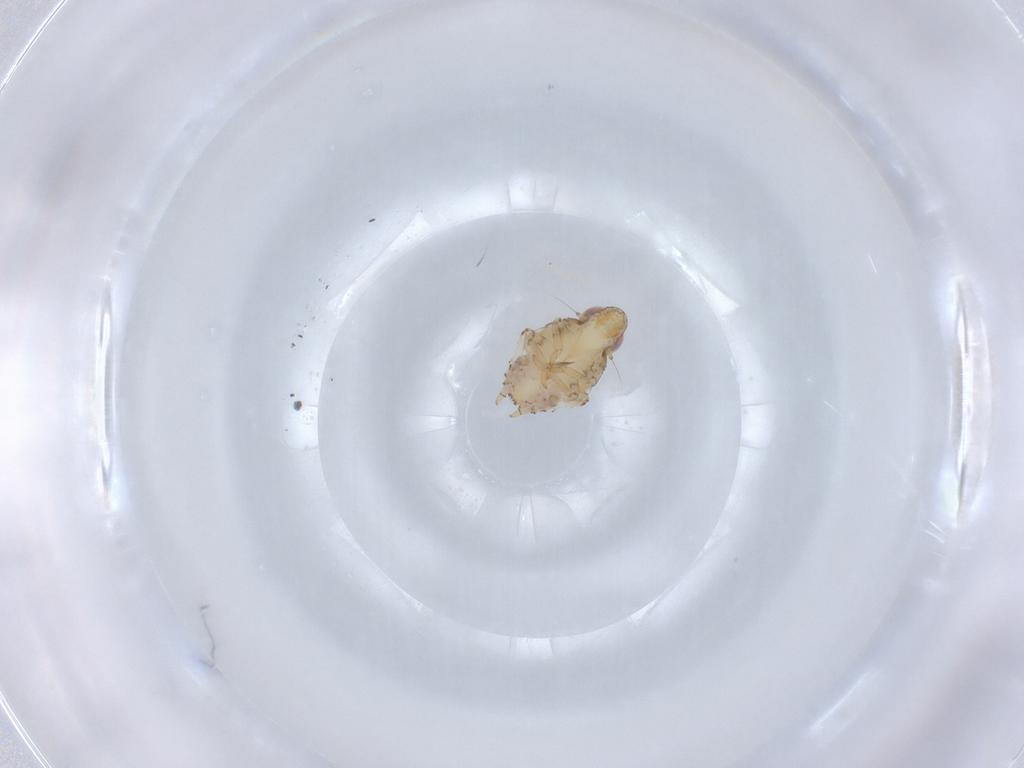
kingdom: Animalia
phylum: Arthropoda
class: Insecta
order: Hemiptera
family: Issidae
